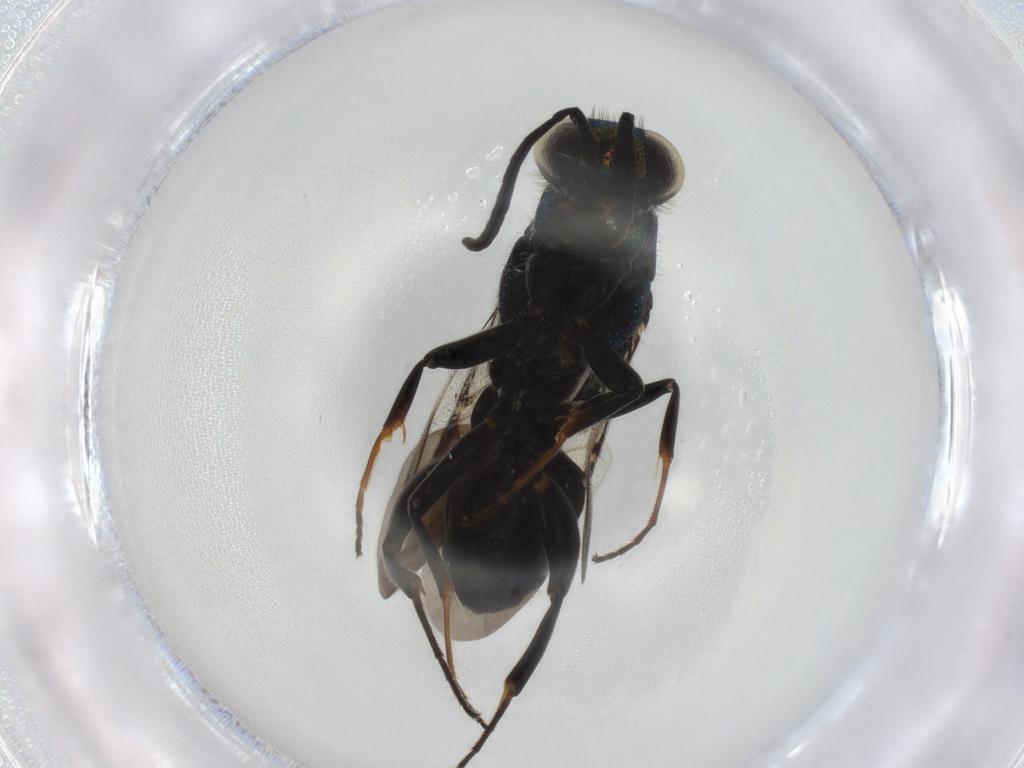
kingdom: Animalia
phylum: Arthropoda
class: Insecta
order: Hymenoptera
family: Chrysididae
